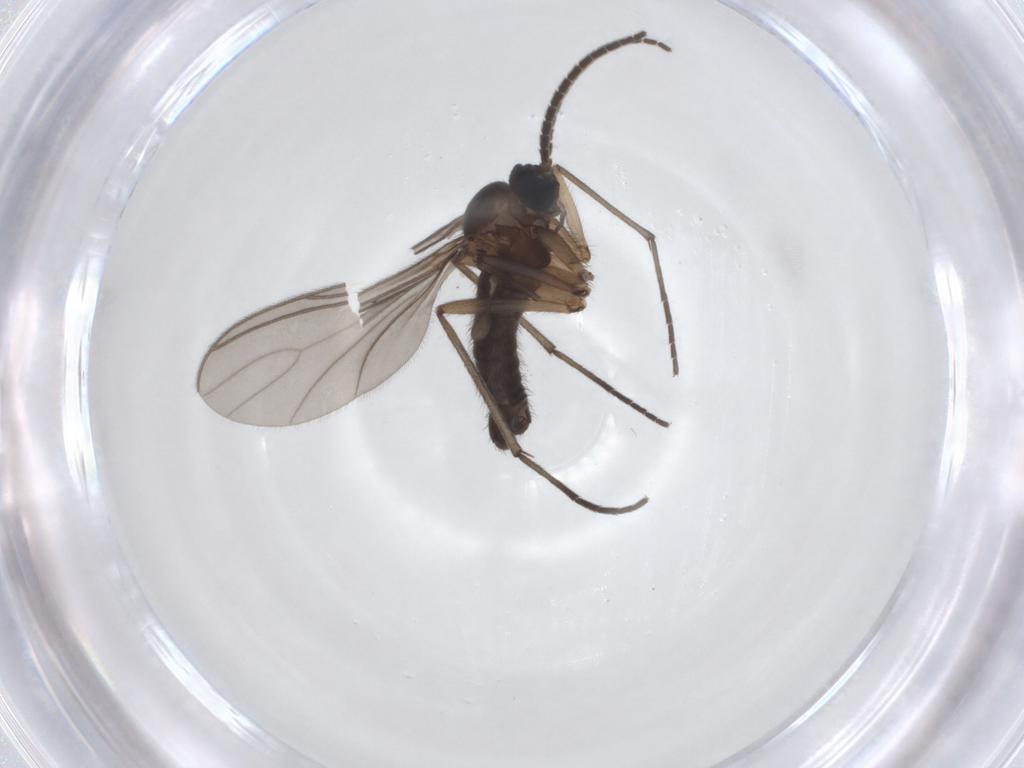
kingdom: Animalia
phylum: Arthropoda
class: Insecta
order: Diptera
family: Sciaridae
